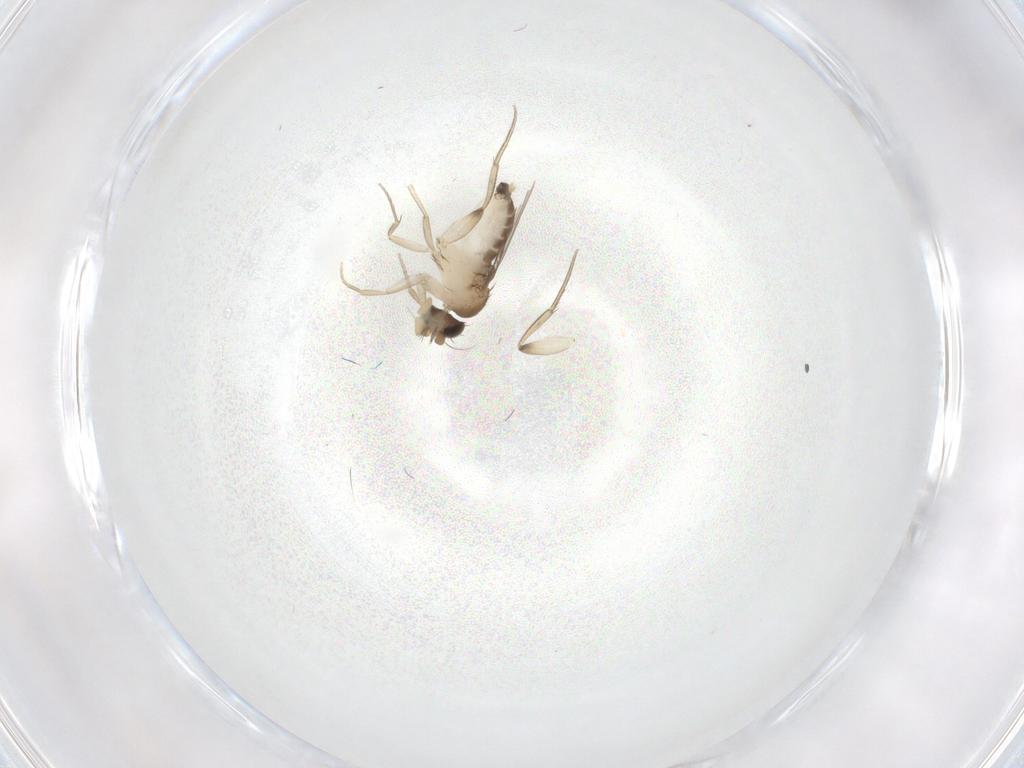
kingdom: Animalia
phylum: Arthropoda
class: Insecta
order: Diptera
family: Phoridae
